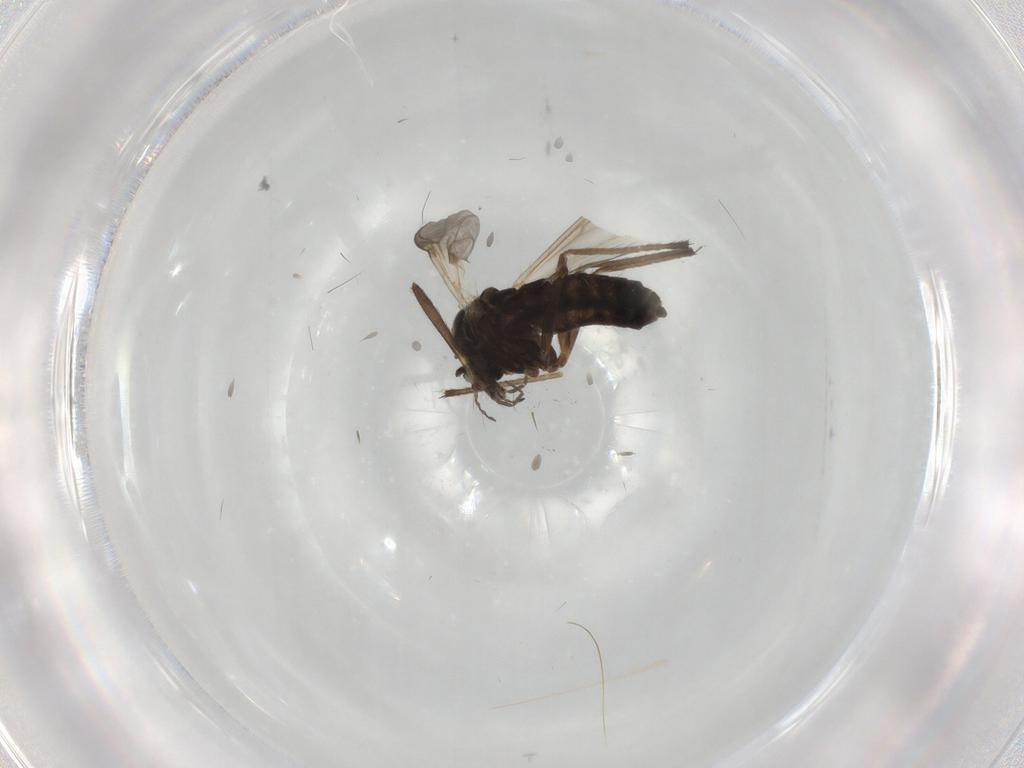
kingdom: Animalia
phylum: Arthropoda
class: Insecta
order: Diptera
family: Chironomidae
